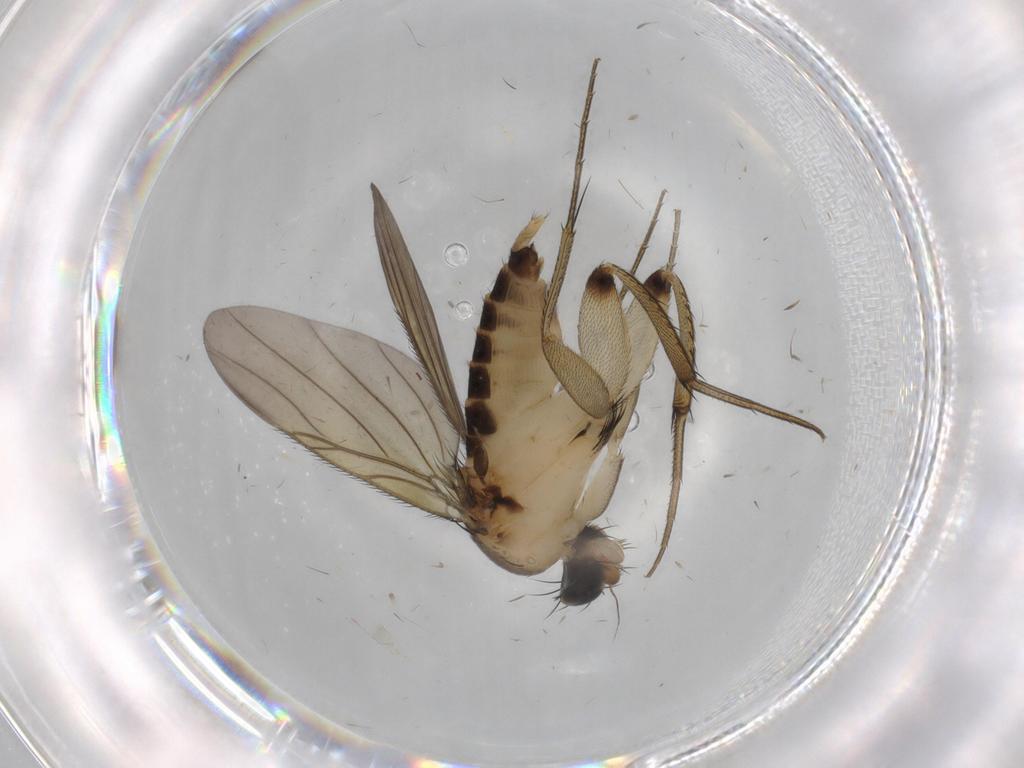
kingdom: Animalia
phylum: Arthropoda
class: Insecta
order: Diptera
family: Phoridae
